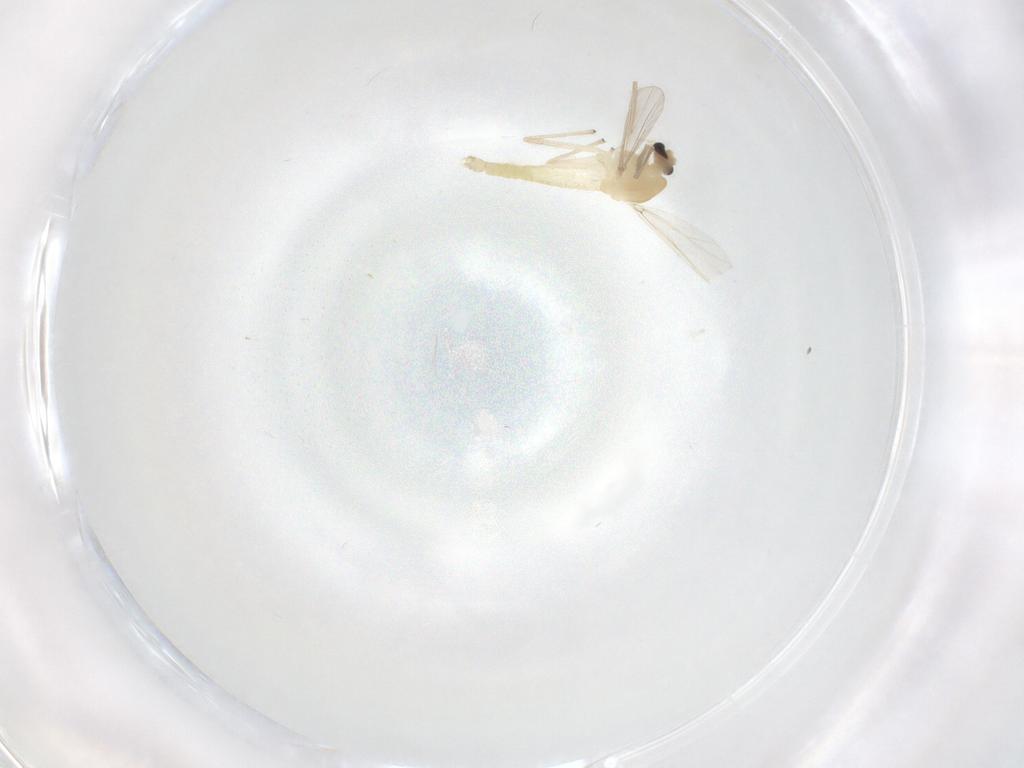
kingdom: Animalia
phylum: Arthropoda
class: Insecta
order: Diptera
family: Chironomidae
